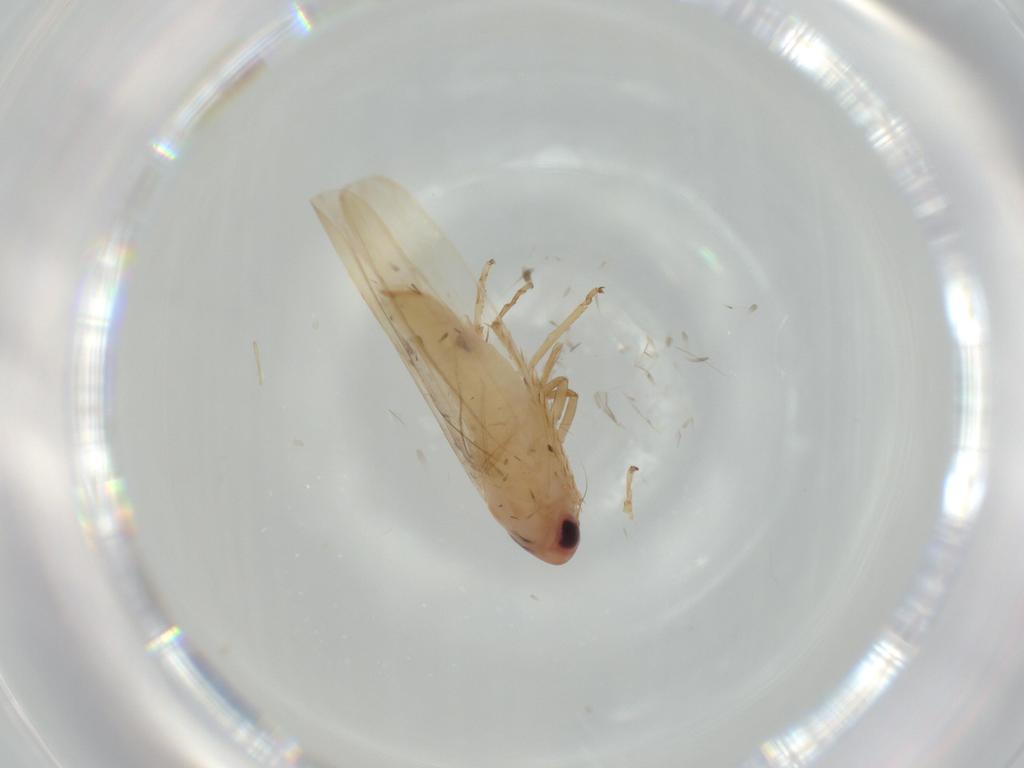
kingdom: Animalia
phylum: Arthropoda
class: Insecta
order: Hemiptera
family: Cicadellidae
